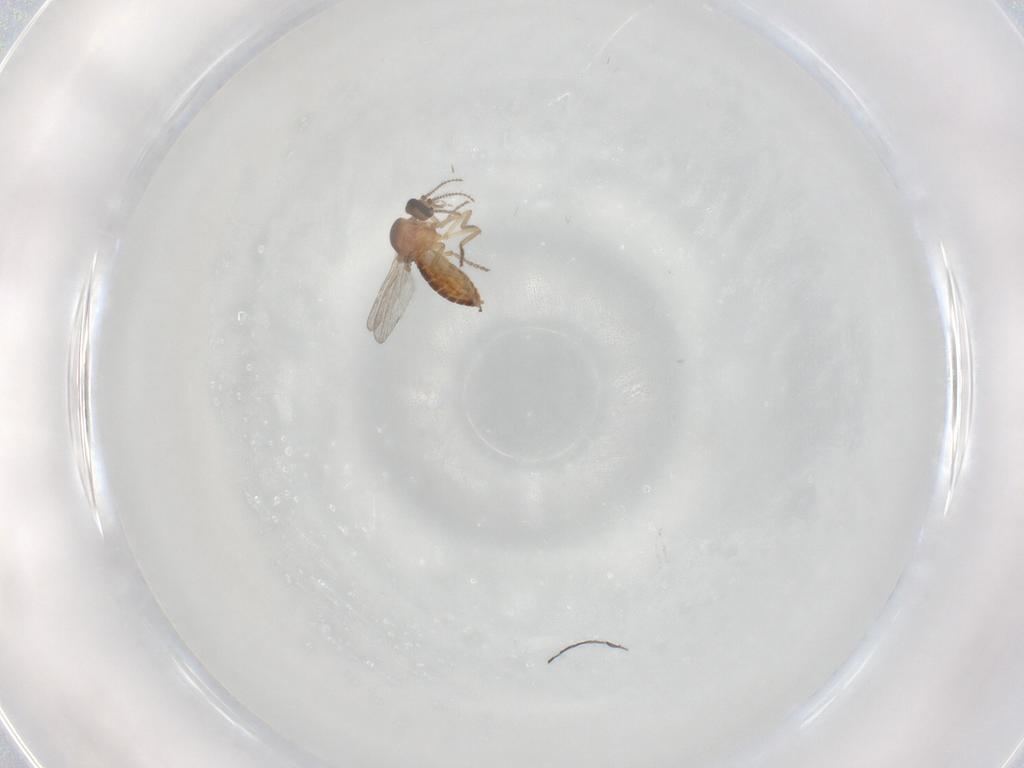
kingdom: Animalia
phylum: Arthropoda
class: Insecta
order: Diptera
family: Ceratopogonidae
